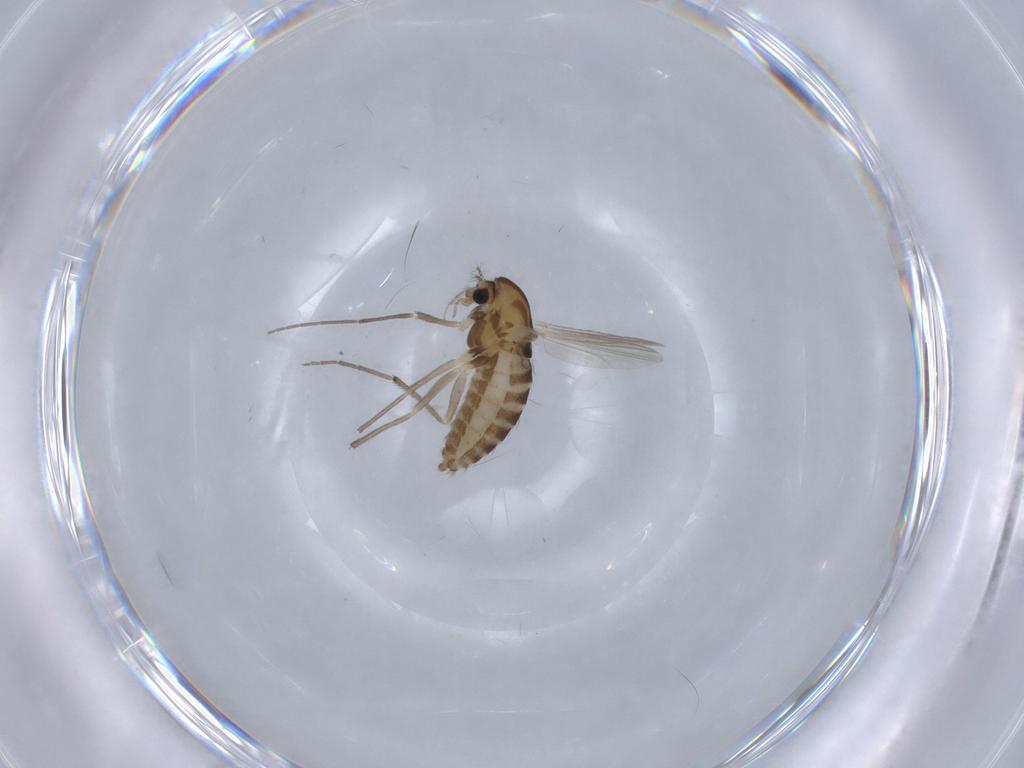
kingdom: Animalia
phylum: Arthropoda
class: Insecta
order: Diptera
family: Chironomidae
